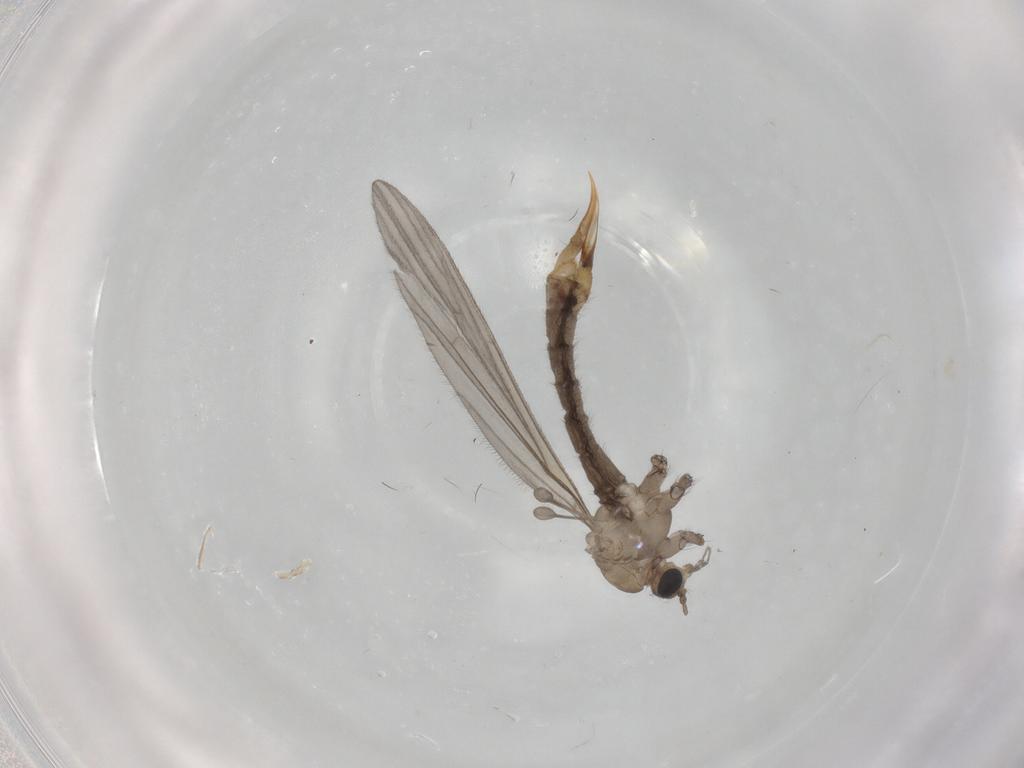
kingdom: Animalia
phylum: Arthropoda
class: Insecta
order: Diptera
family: Limoniidae
